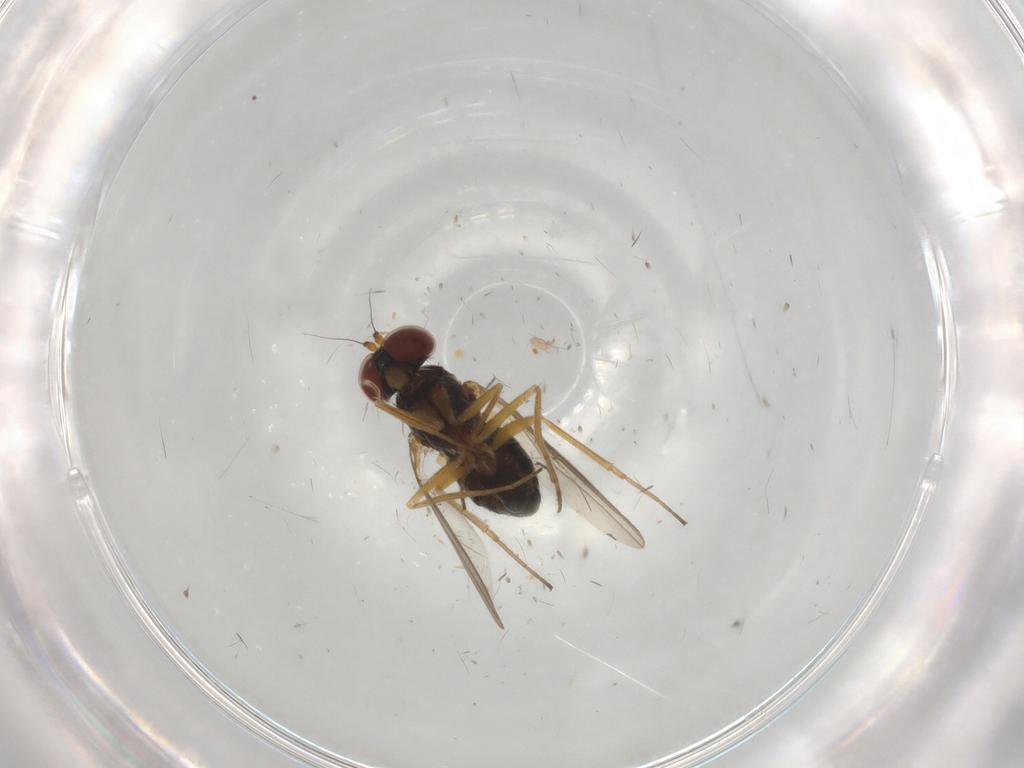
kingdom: Animalia
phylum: Arthropoda
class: Insecta
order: Diptera
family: Dolichopodidae
